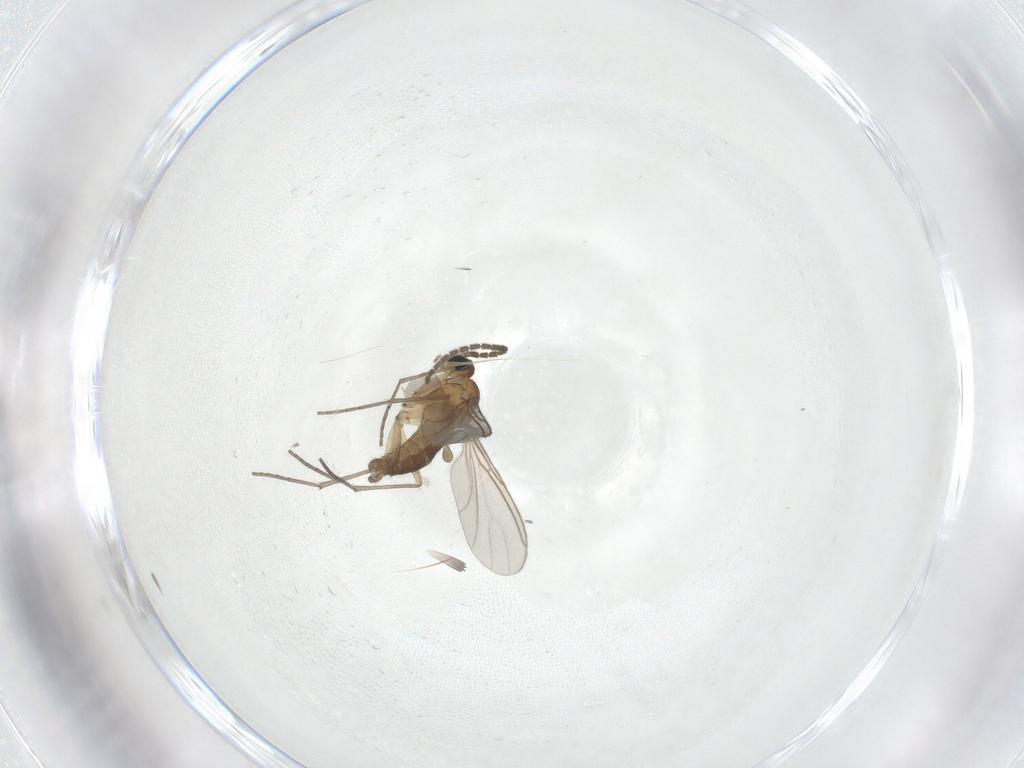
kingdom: Animalia
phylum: Arthropoda
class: Insecta
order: Diptera
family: Sciaridae
